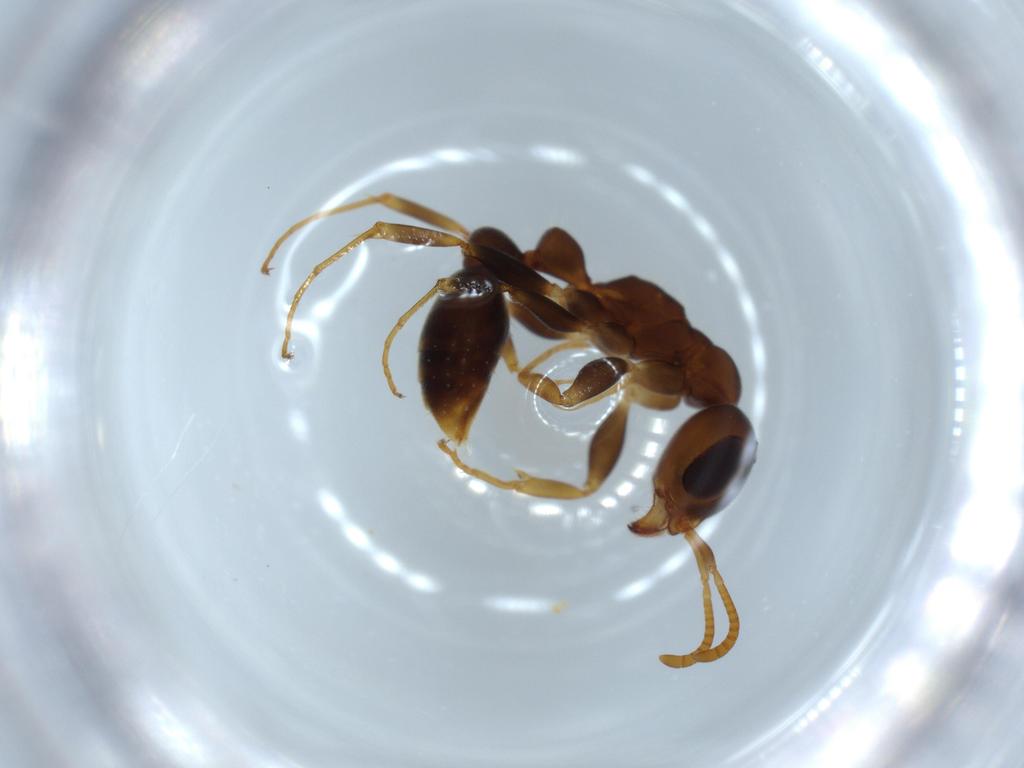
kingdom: Animalia
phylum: Arthropoda
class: Insecta
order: Hymenoptera
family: Formicidae
